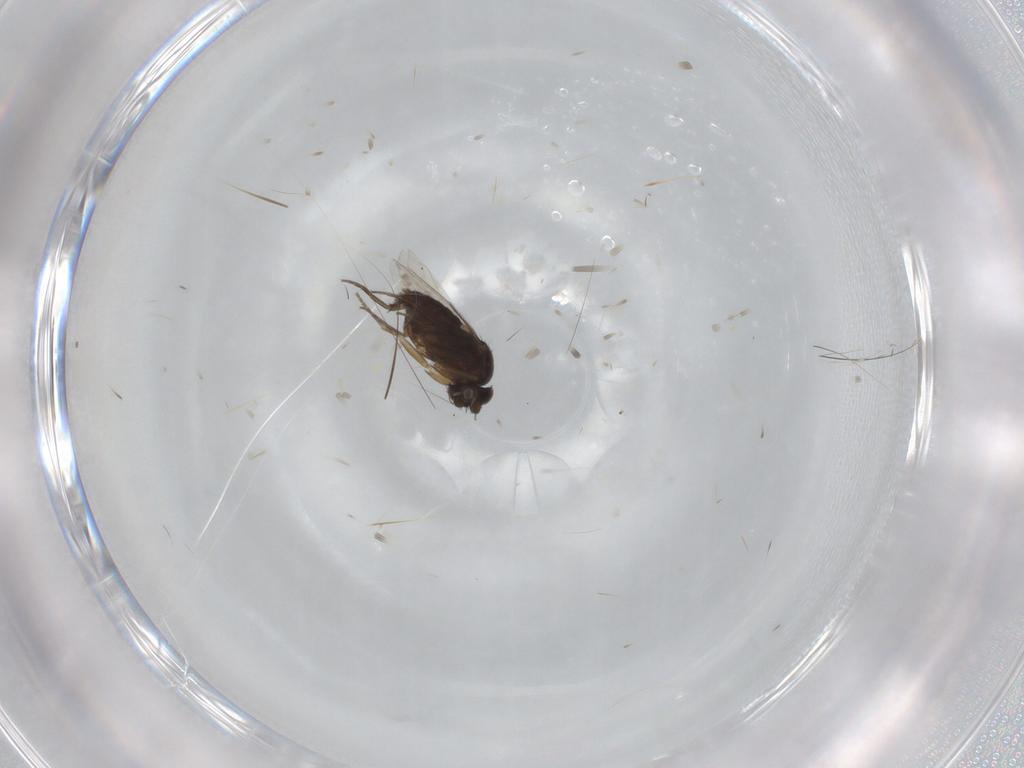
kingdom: Animalia
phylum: Arthropoda
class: Insecta
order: Diptera
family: Phoridae
